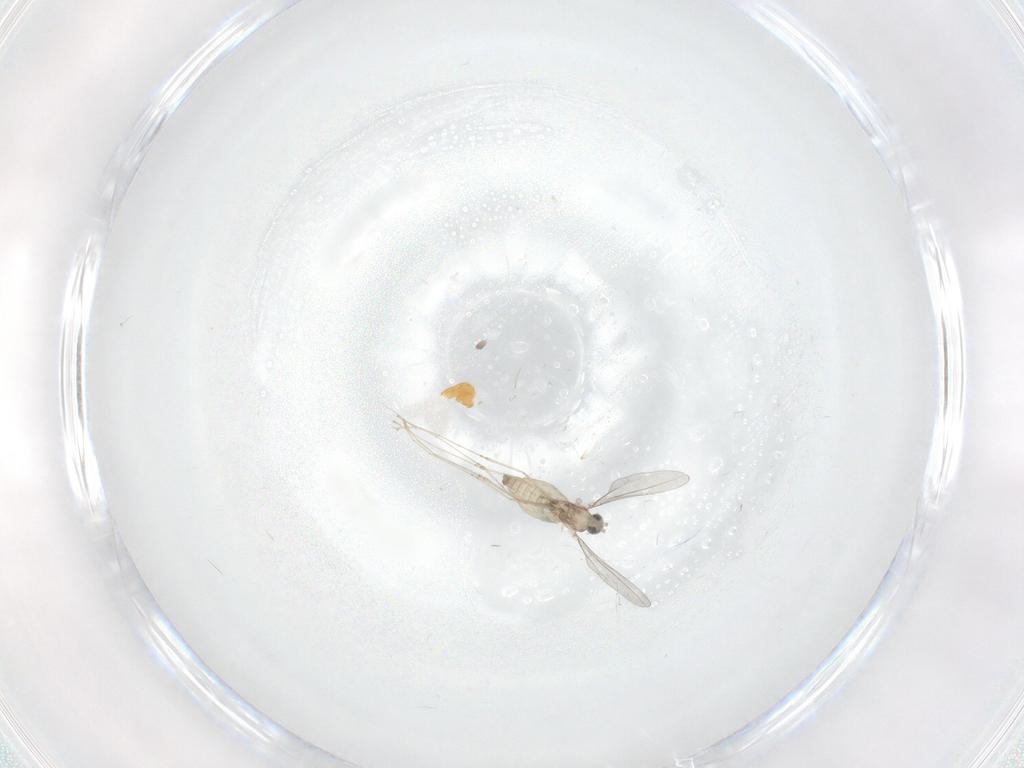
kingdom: Animalia
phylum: Arthropoda
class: Insecta
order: Diptera
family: Cecidomyiidae
